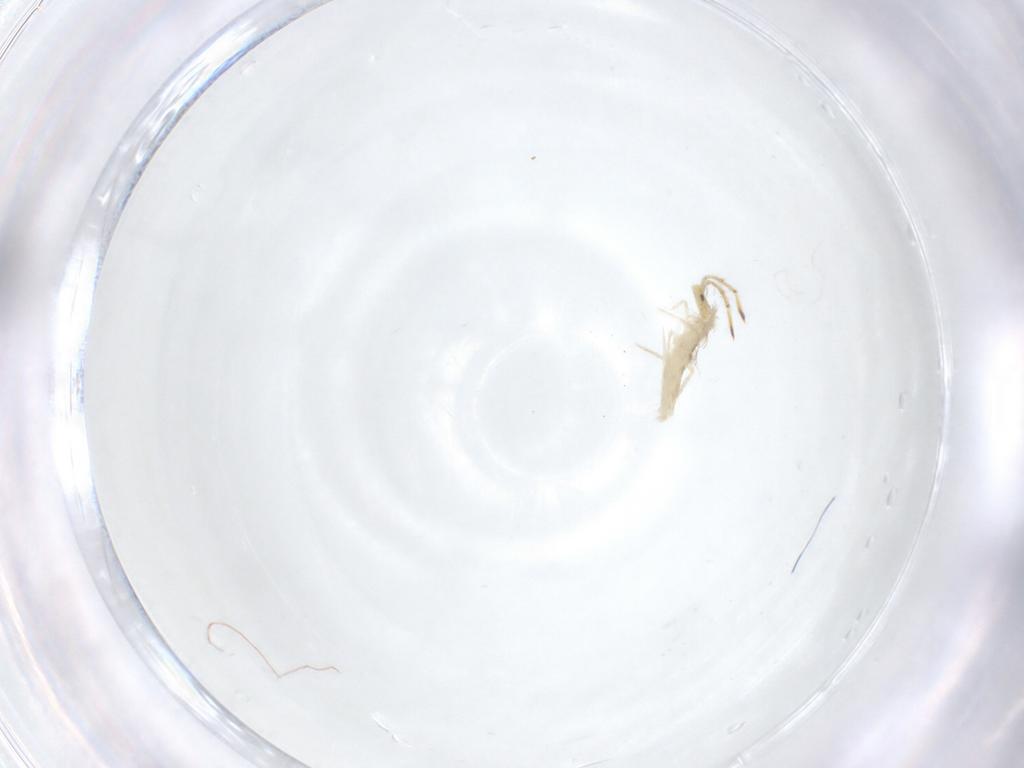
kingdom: Animalia
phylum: Arthropoda
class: Collembola
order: Entomobryomorpha
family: Entomobryidae
